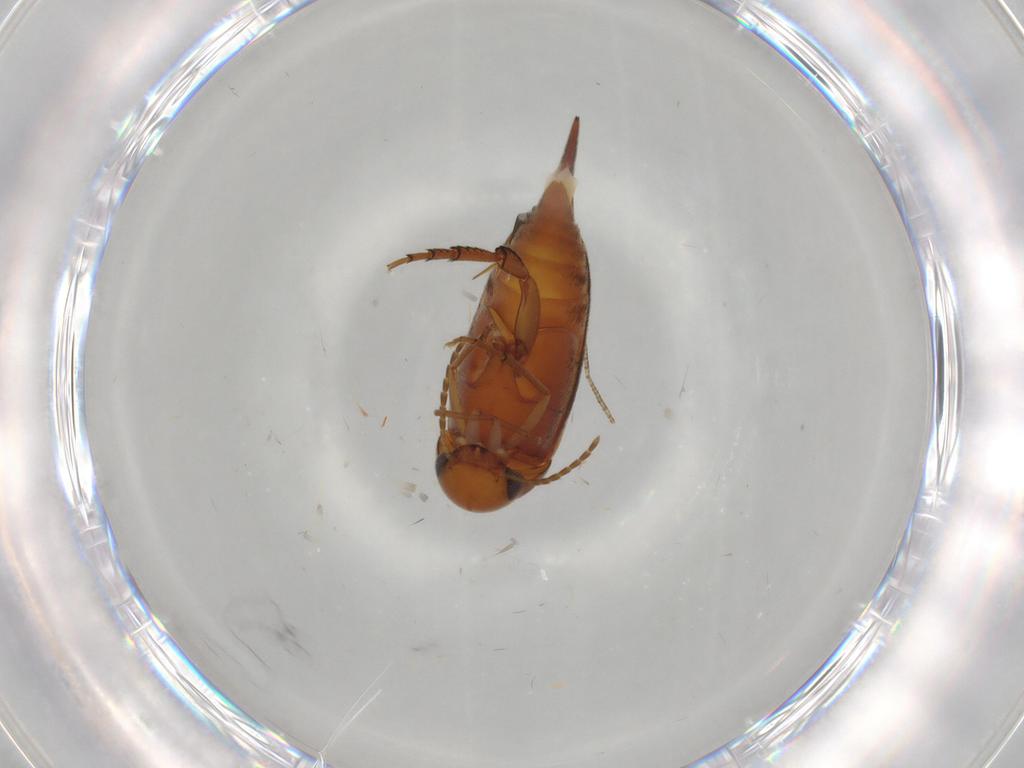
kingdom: Animalia
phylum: Arthropoda
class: Insecta
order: Coleoptera
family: Mordellidae
